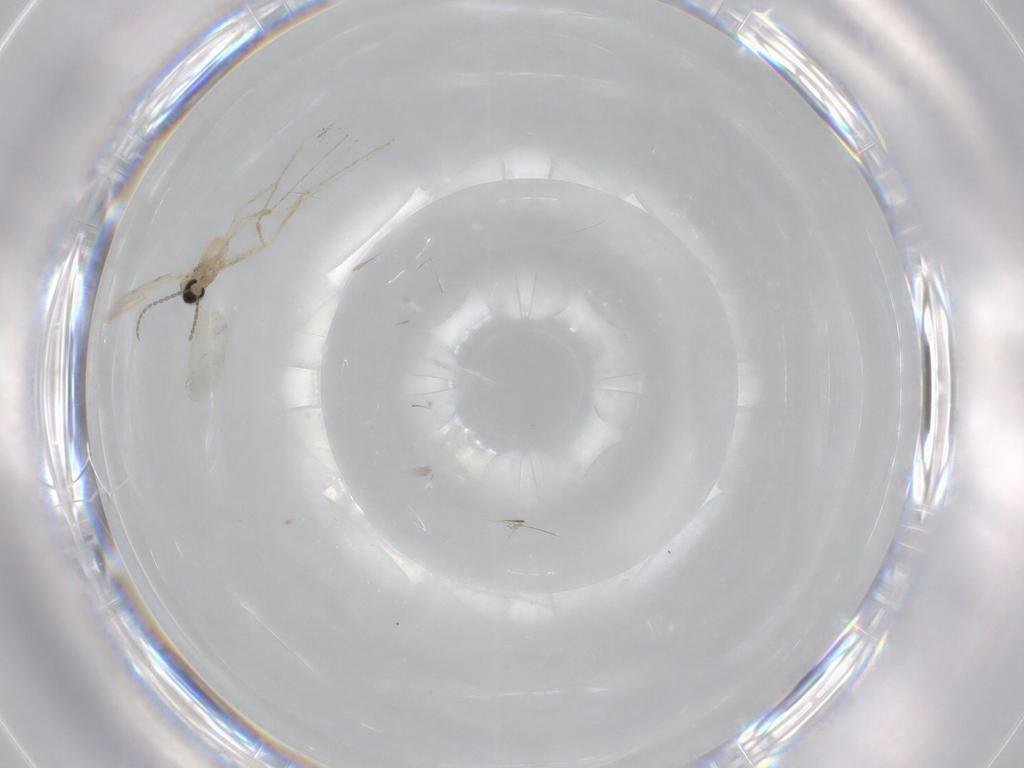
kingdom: Animalia
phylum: Arthropoda
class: Insecta
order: Diptera
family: Cecidomyiidae
